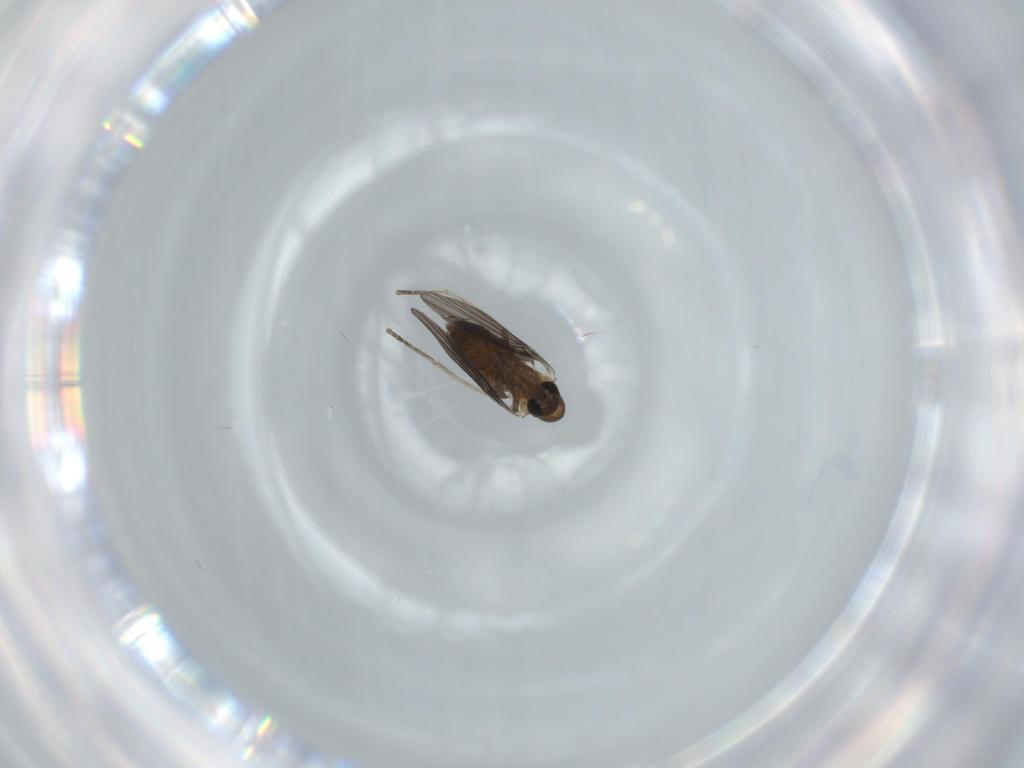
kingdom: Animalia
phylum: Arthropoda
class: Insecta
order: Diptera
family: Psychodidae
